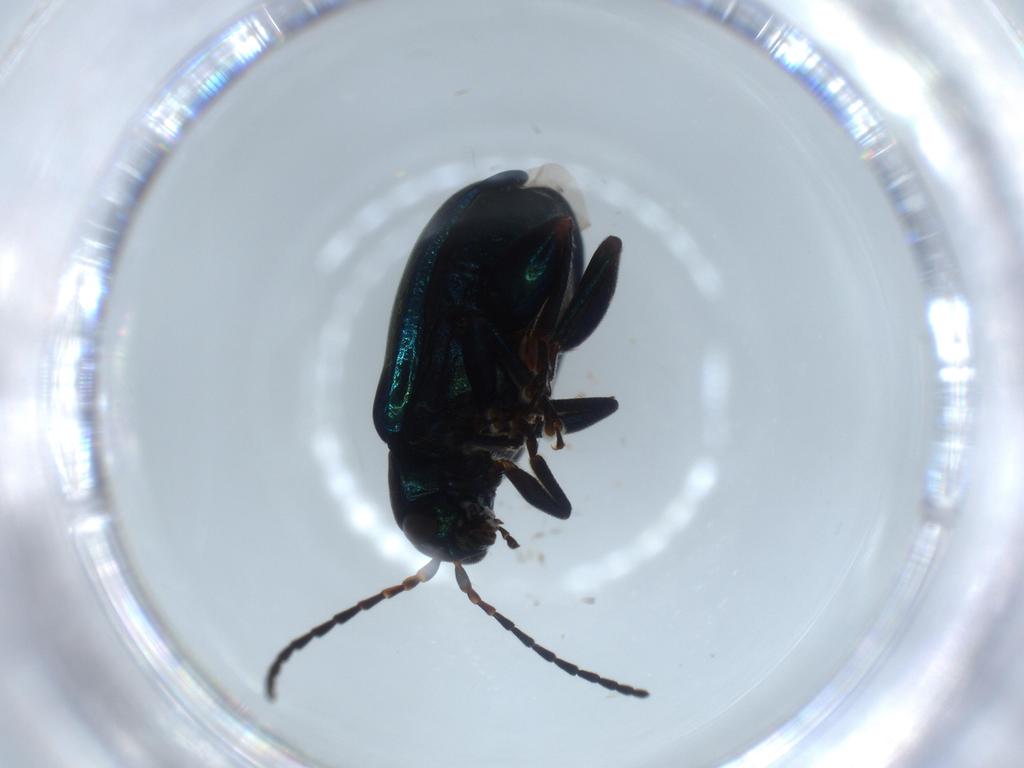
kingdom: Animalia
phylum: Arthropoda
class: Insecta
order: Coleoptera
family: Chrysomelidae
